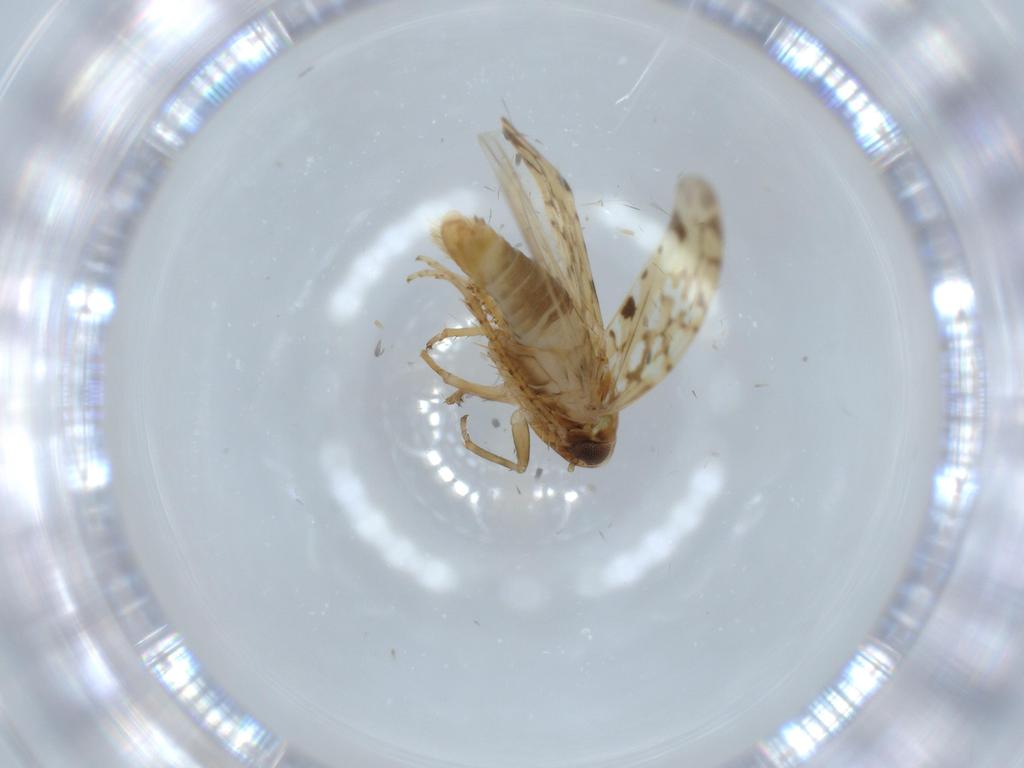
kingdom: Animalia
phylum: Arthropoda
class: Insecta
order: Hemiptera
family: Cicadellidae
